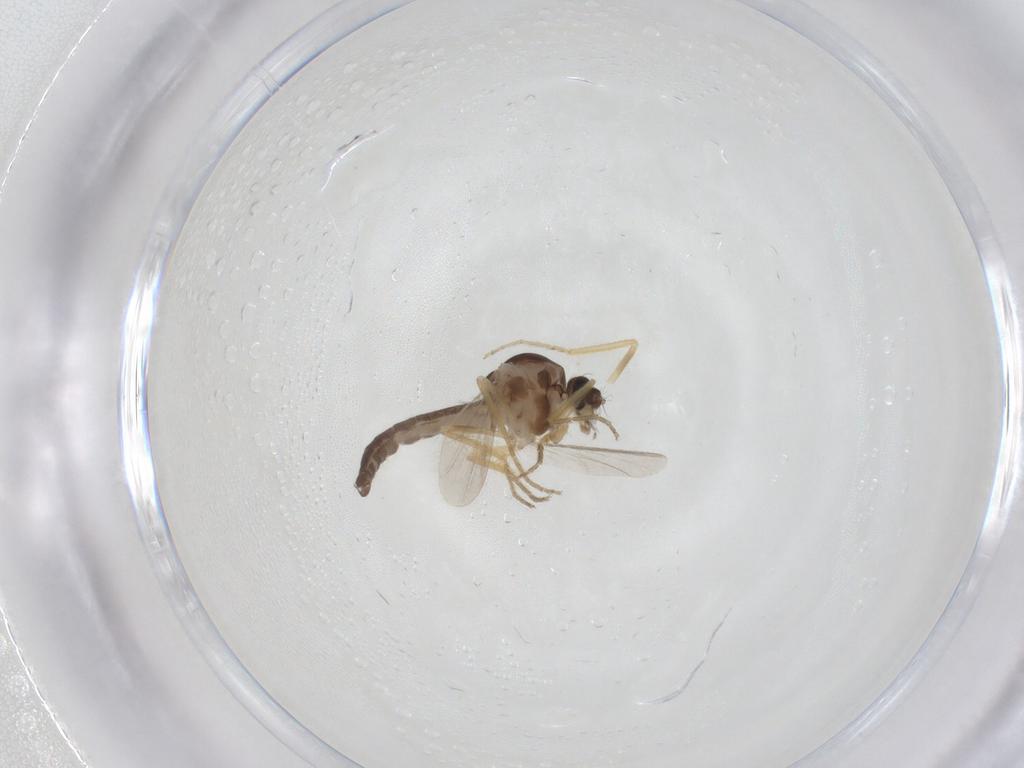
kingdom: Animalia
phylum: Arthropoda
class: Insecta
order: Diptera
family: Ceratopogonidae
